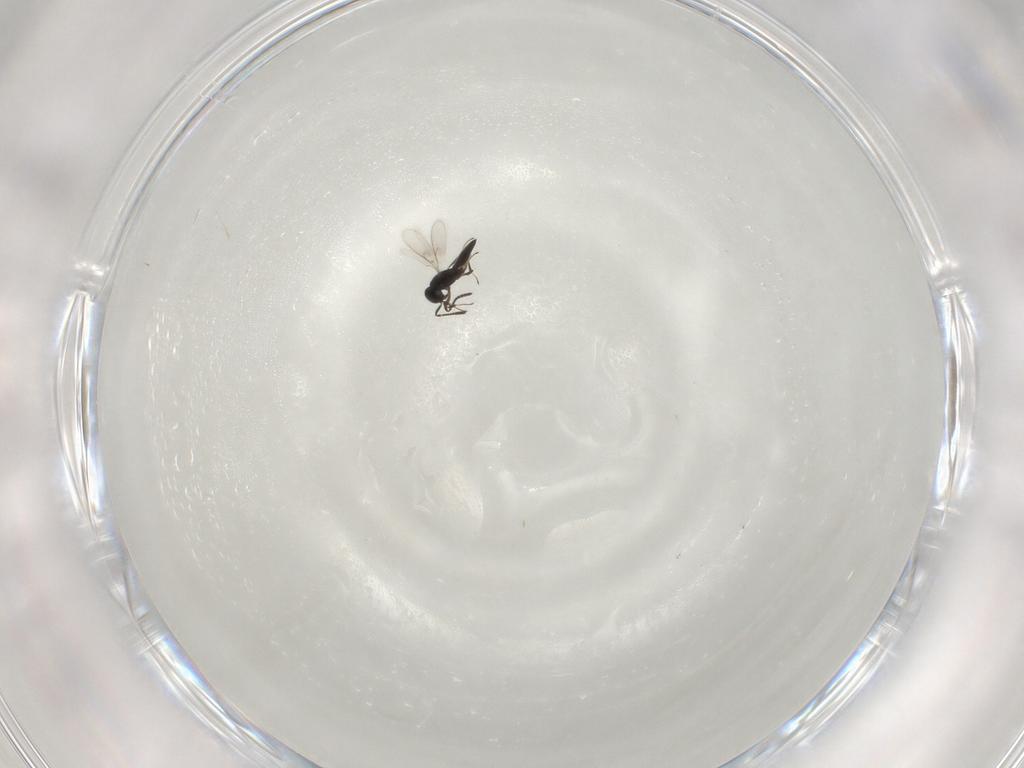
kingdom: Animalia
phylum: Arthropoda
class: Insecta
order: Hymenoptera
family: Scelionidae
